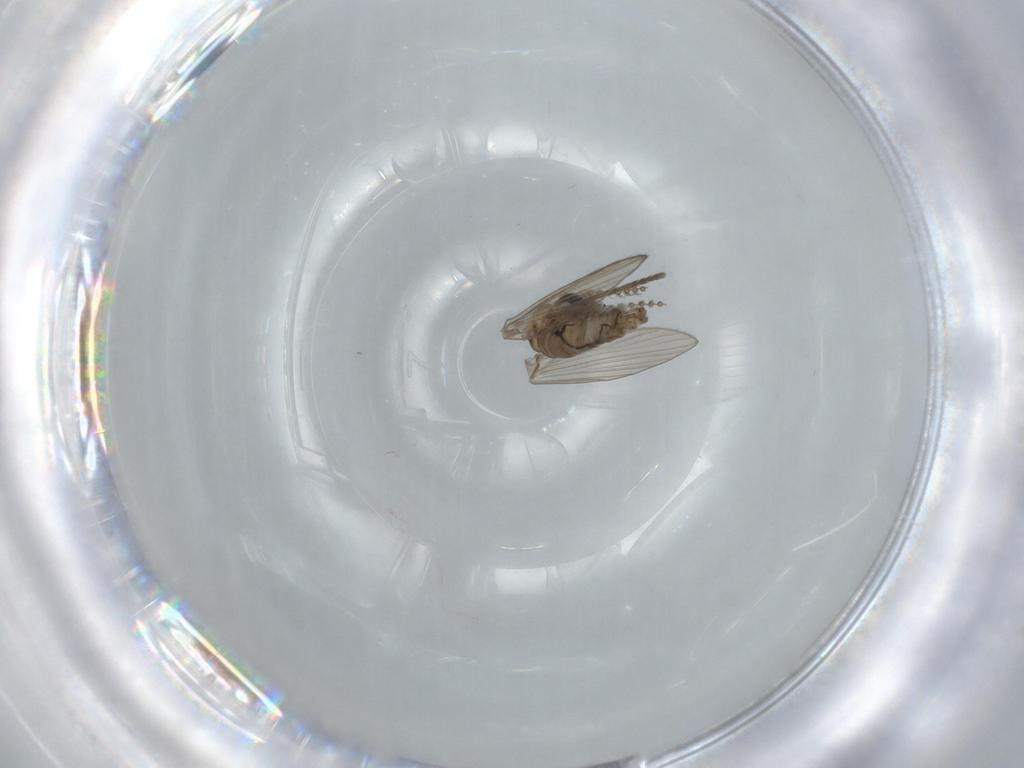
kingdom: Animalia
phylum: Arthropoda
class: Insecta
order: Diptera
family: Psychodidae
